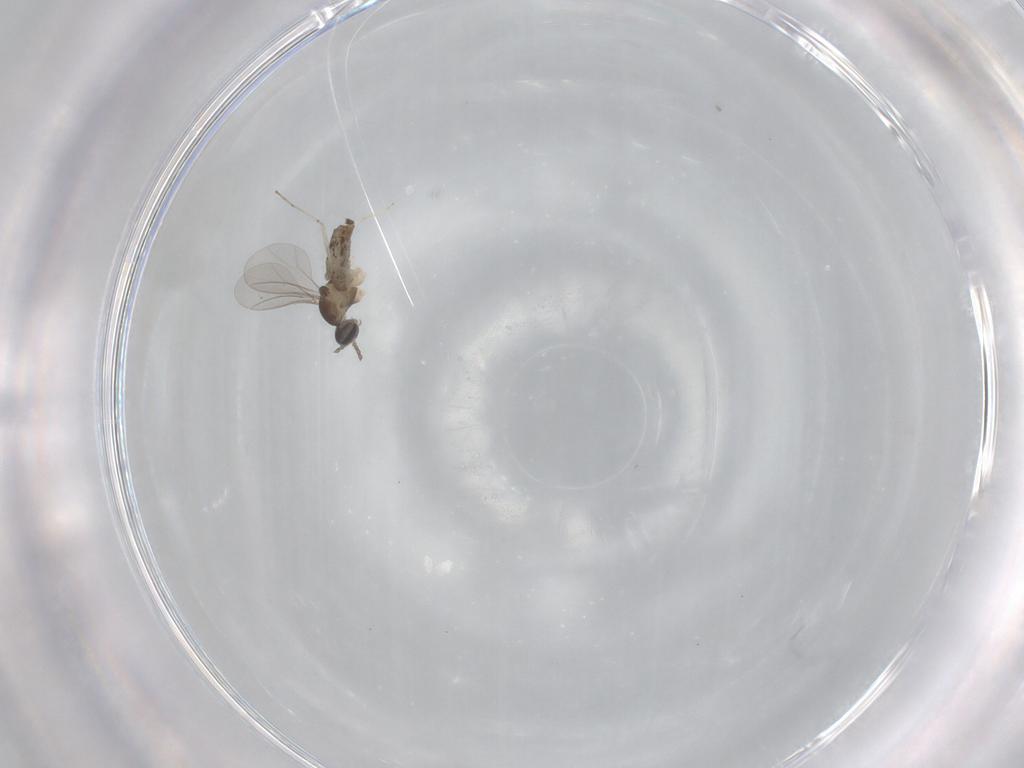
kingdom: Animalia
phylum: Arthropoda
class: Insecta
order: Diptera
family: Cecidomyiidae
